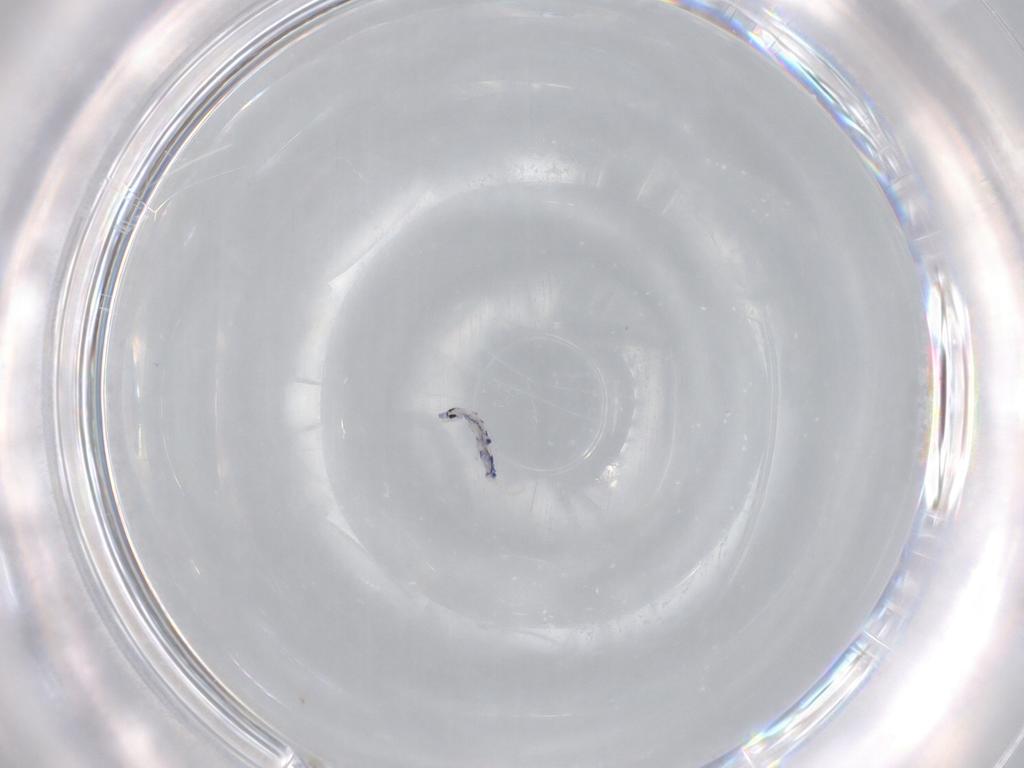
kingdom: Animalia
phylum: Arthropoda
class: Collembola
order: Entomobryomorpha
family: Entomobryidae
